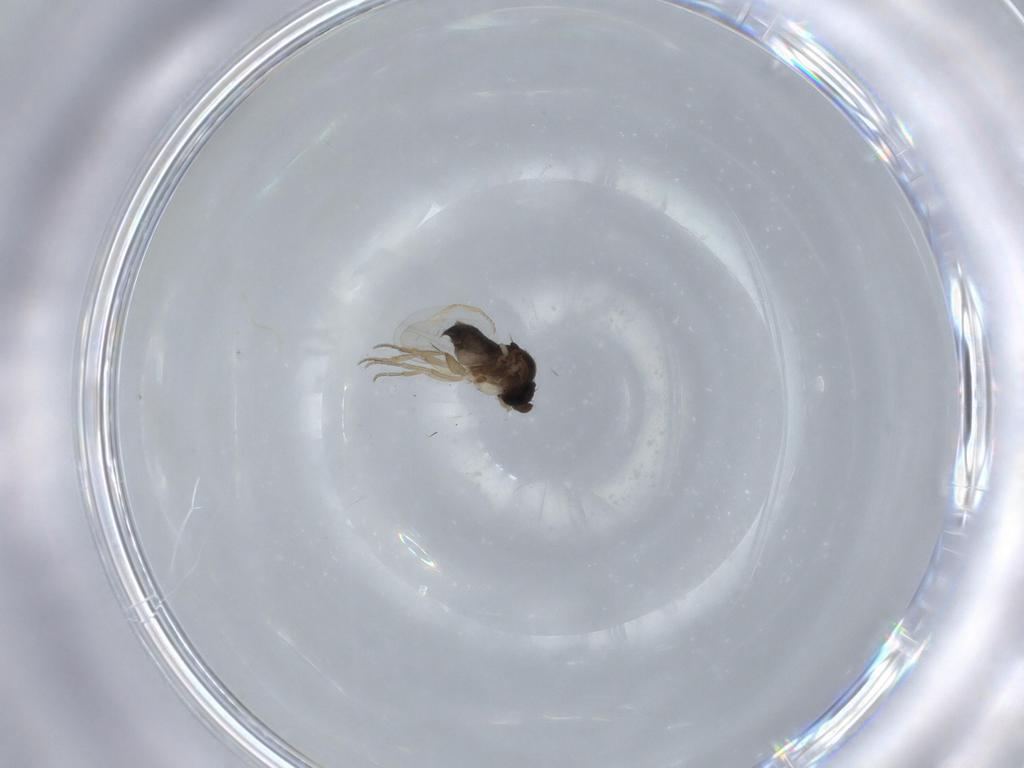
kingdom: Animalia
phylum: Arthropoda
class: Insecta
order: Diptera
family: Phoridae
